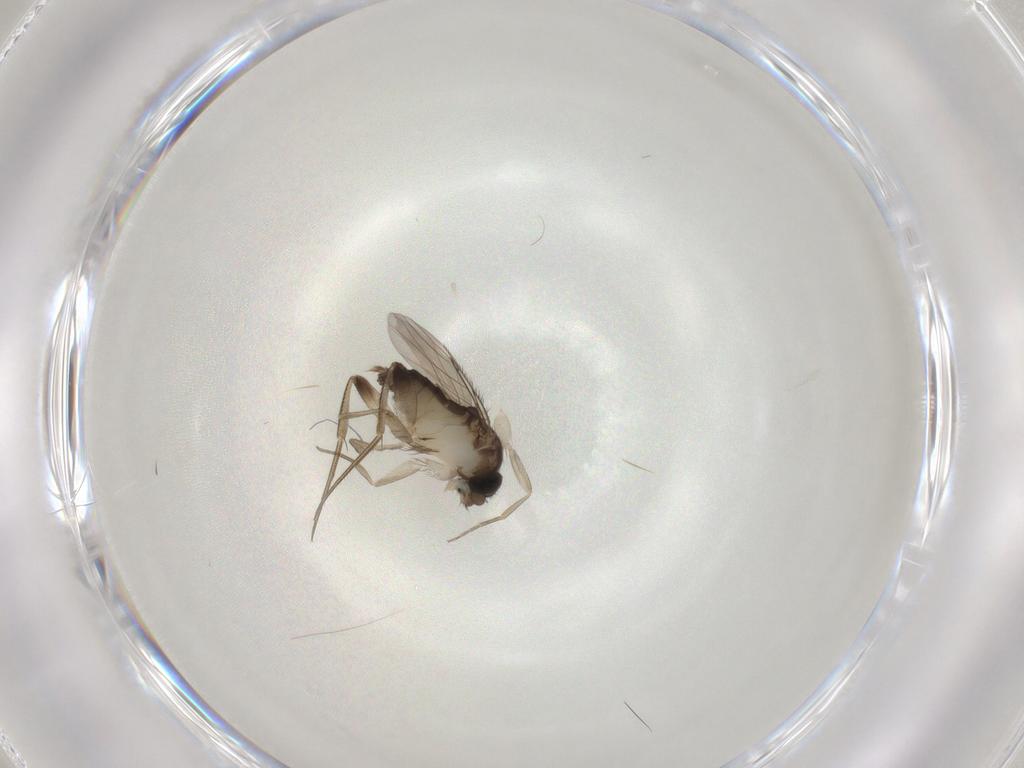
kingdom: Animalia
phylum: Arthropoda
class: Insecta
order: Diptera
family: Phoridae
